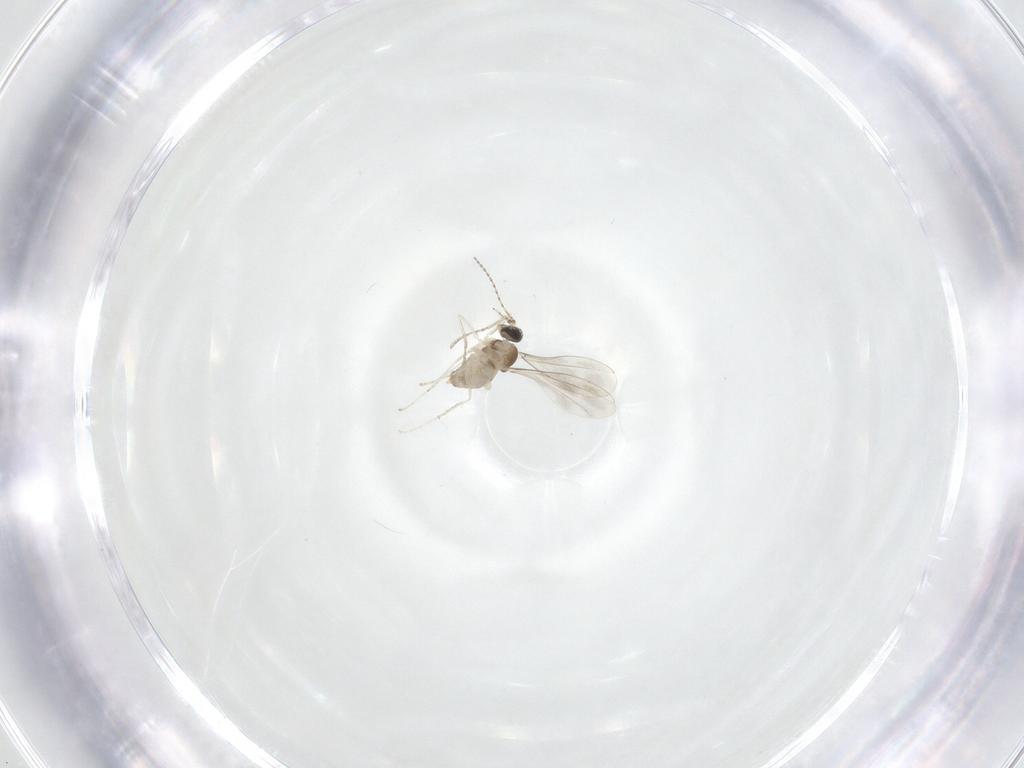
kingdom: Animalia
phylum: Arthropoda
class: Insecta
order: Diptera
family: Cecidomyiidae
